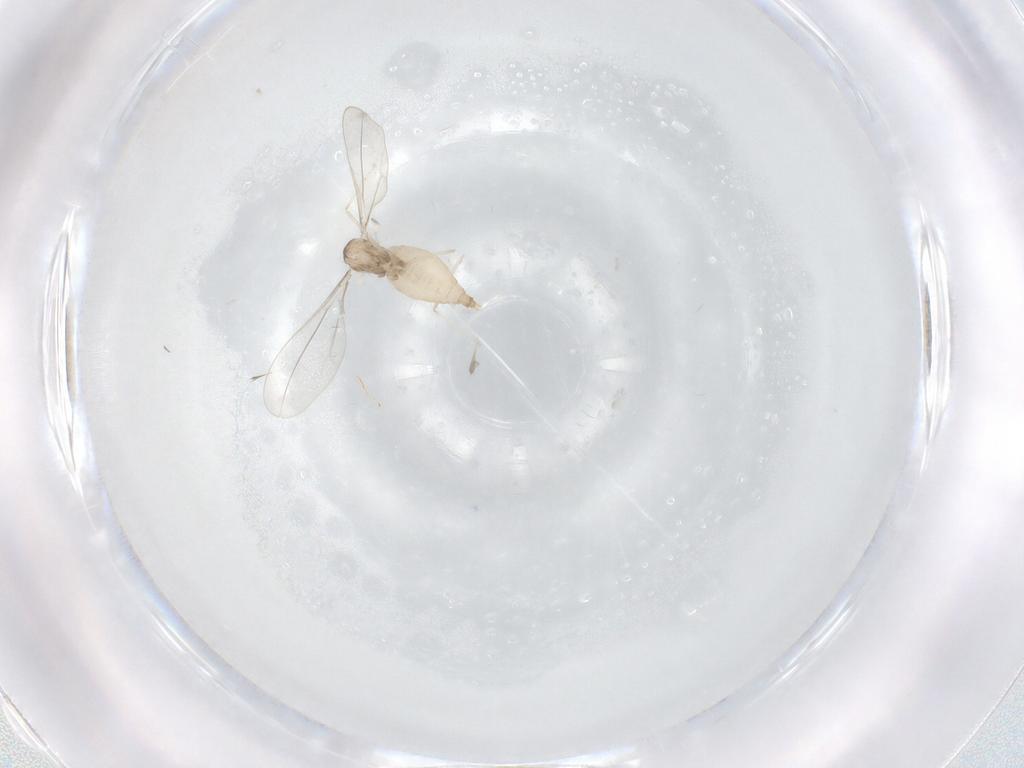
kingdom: Animalia
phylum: Arthropoda
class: Insecta
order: Diptera
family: Cecidomyiidae
